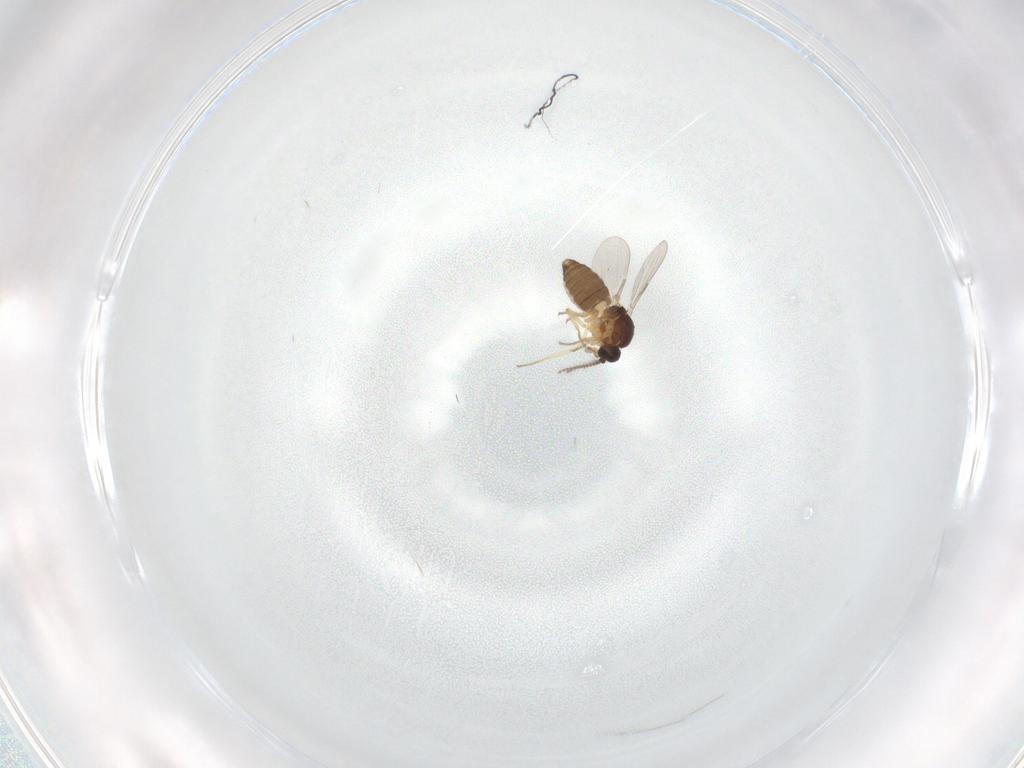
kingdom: Animalia
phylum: Arthropoda
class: Insecta
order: Diptera
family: Ceratopogonidae
